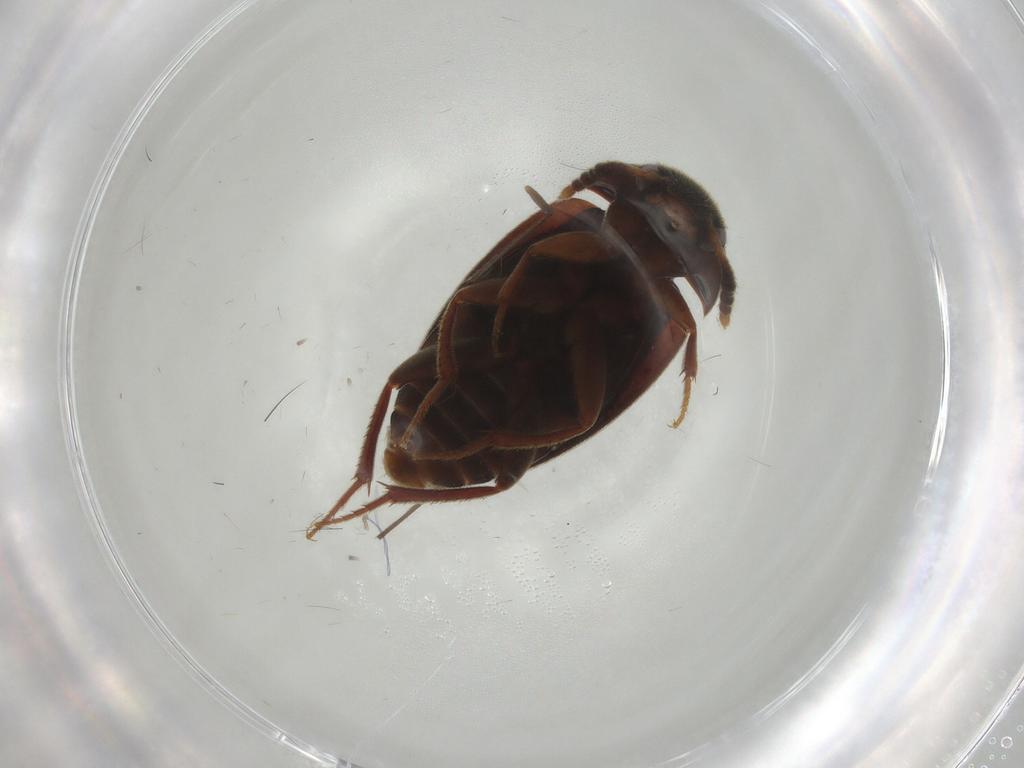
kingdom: Animalia
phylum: Arthropoda
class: Insecta
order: Coleoptera
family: Leiodidae
